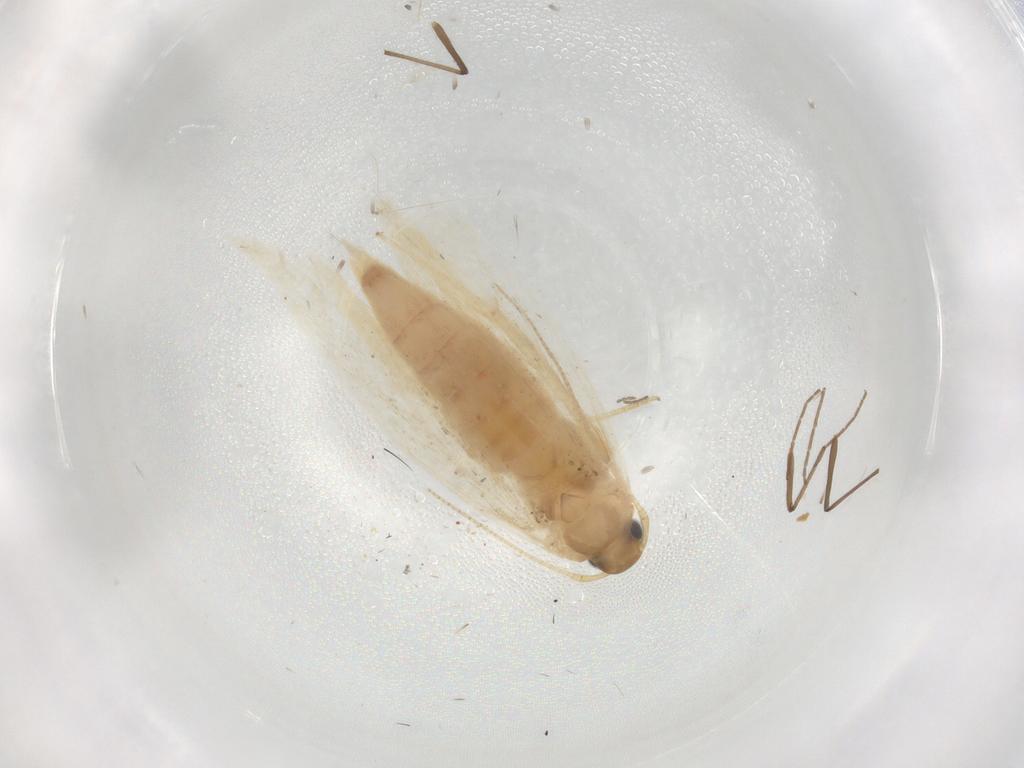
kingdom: Animalia
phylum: Arthropoda
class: Insecta
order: Lepidoptera
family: Gelechiidae
